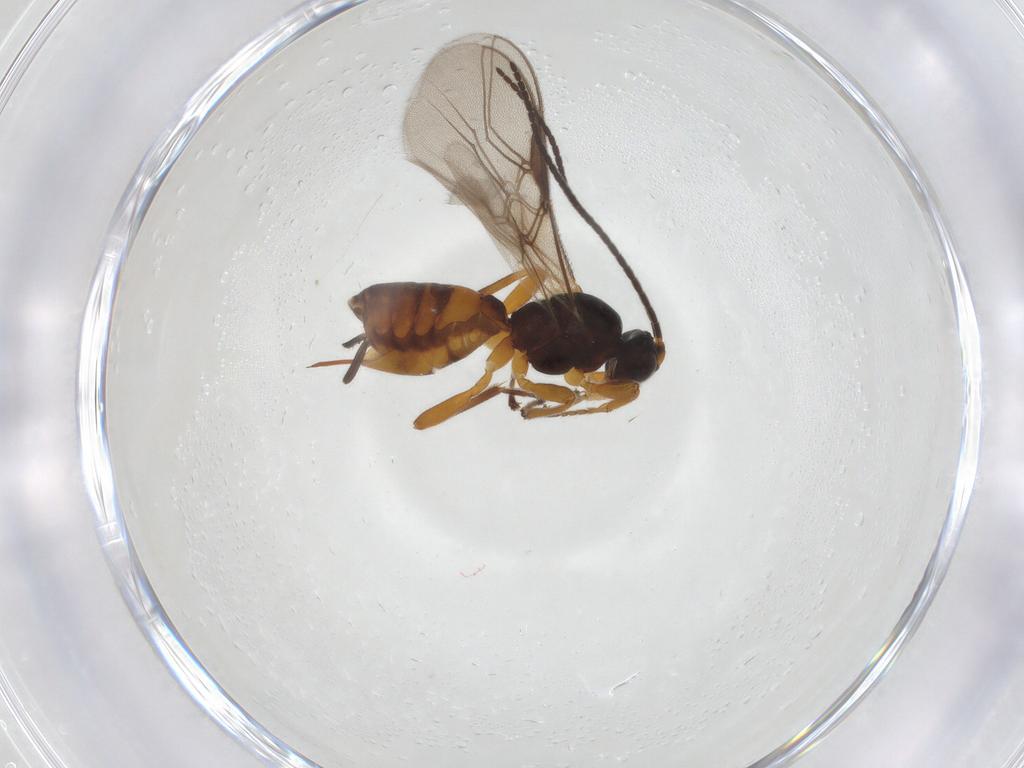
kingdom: Animalia
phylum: Arthropoda
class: Insecta
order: Hymenoptera
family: Braconidae
